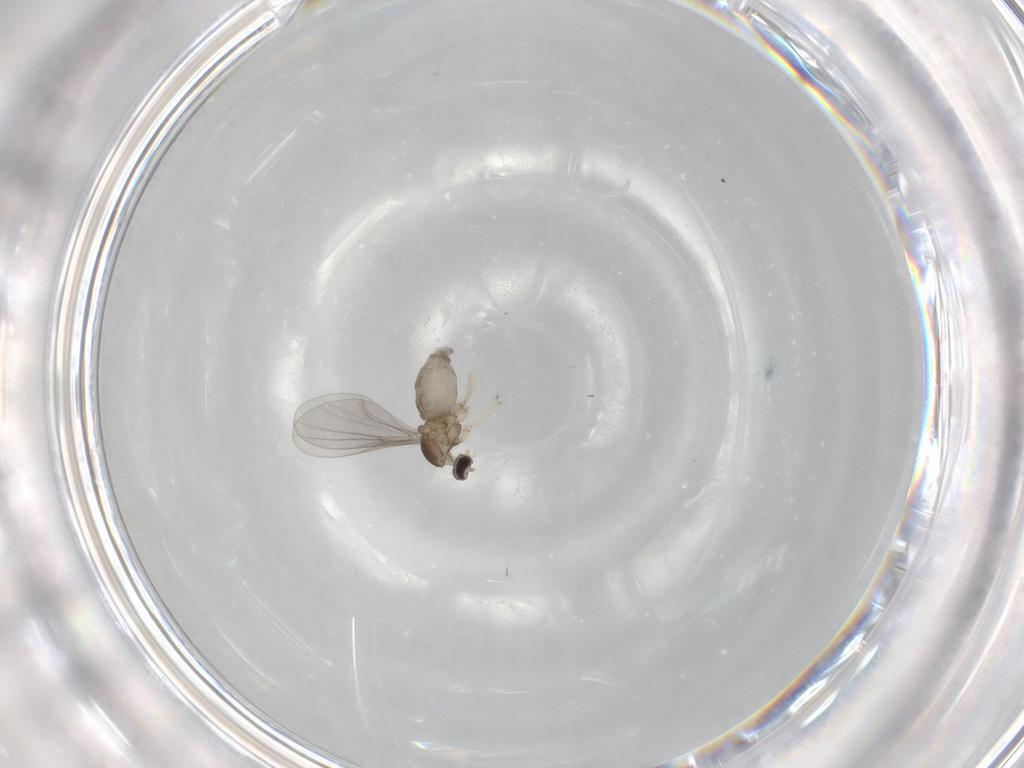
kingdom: Animalia
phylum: Arthropoda
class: Insecta
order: Diptera
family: Cecidomyiidae
